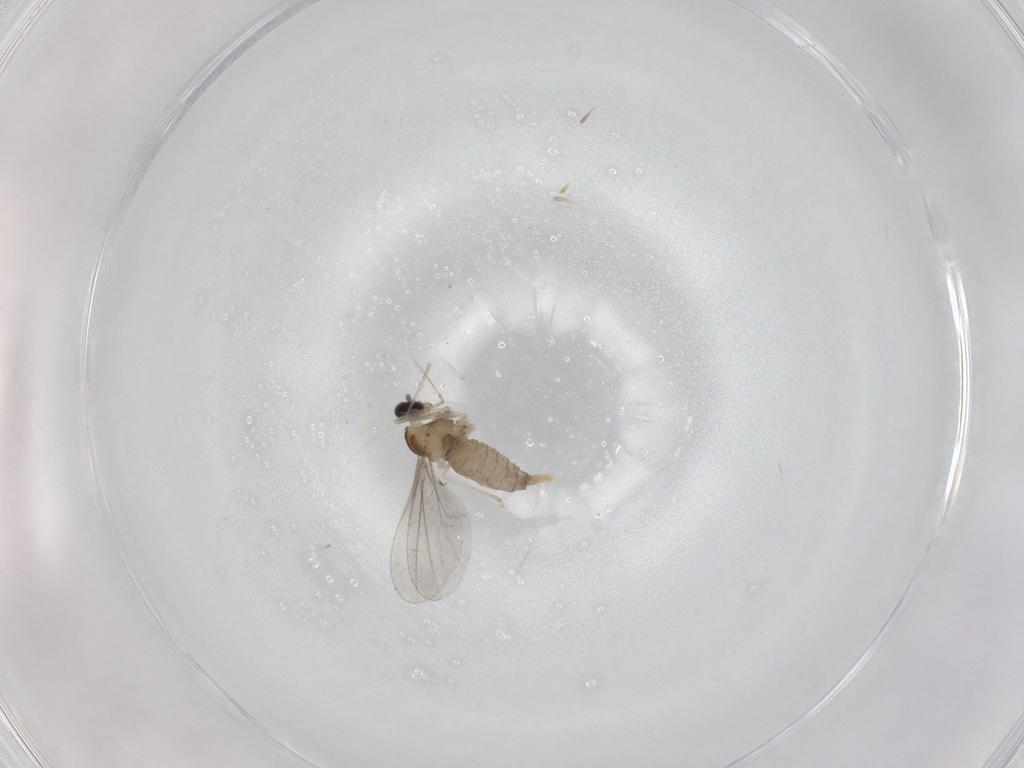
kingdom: Animalia
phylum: Arthropoda
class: Insecta
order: Diptera
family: Cecidomyiidae
